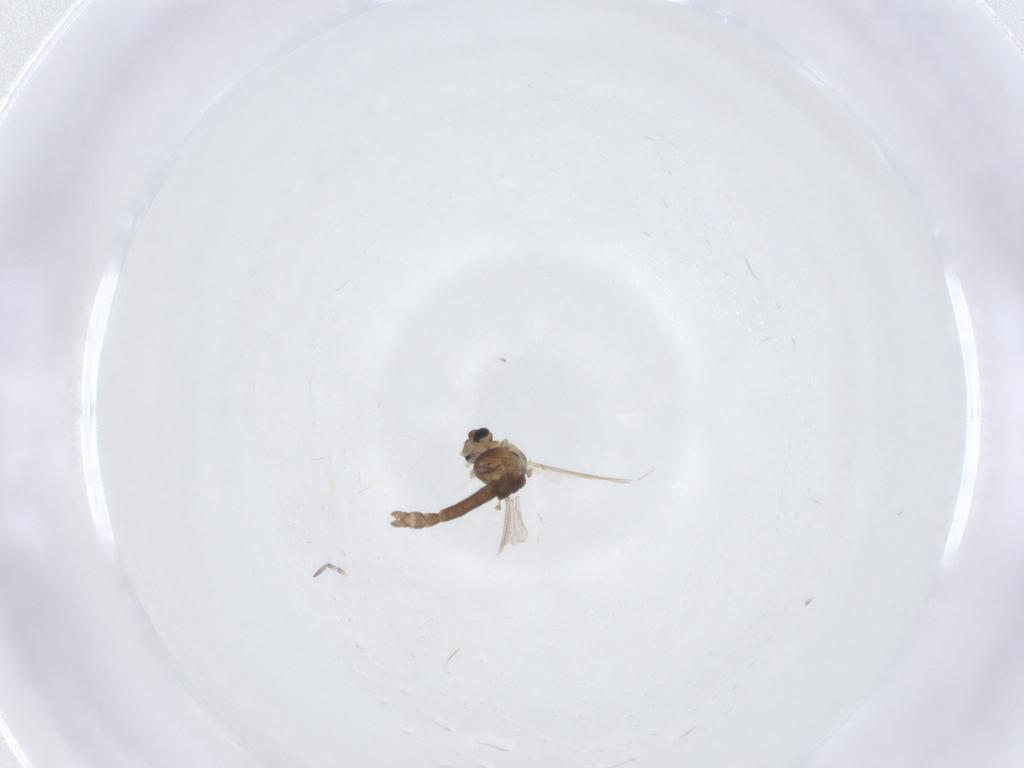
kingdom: Animalia
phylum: Arthropoda
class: Insecta
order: Diptera
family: Chironomidae
